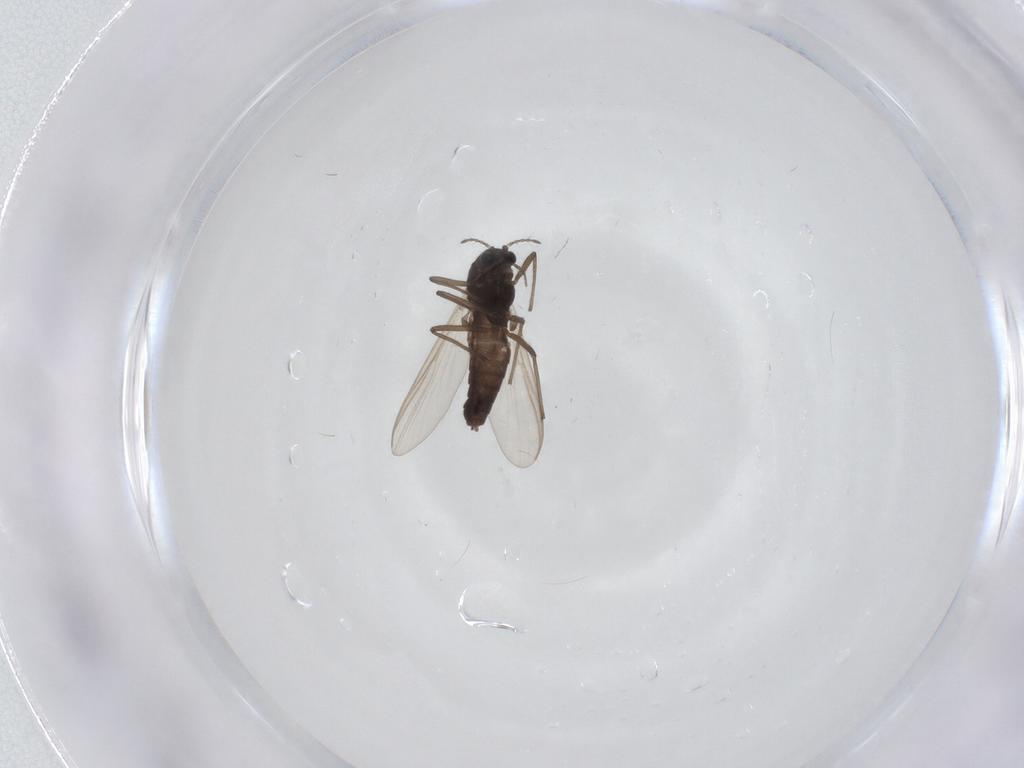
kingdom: Animalia
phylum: Arthropoda
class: Insecta
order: Diptera
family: Chironomidae
